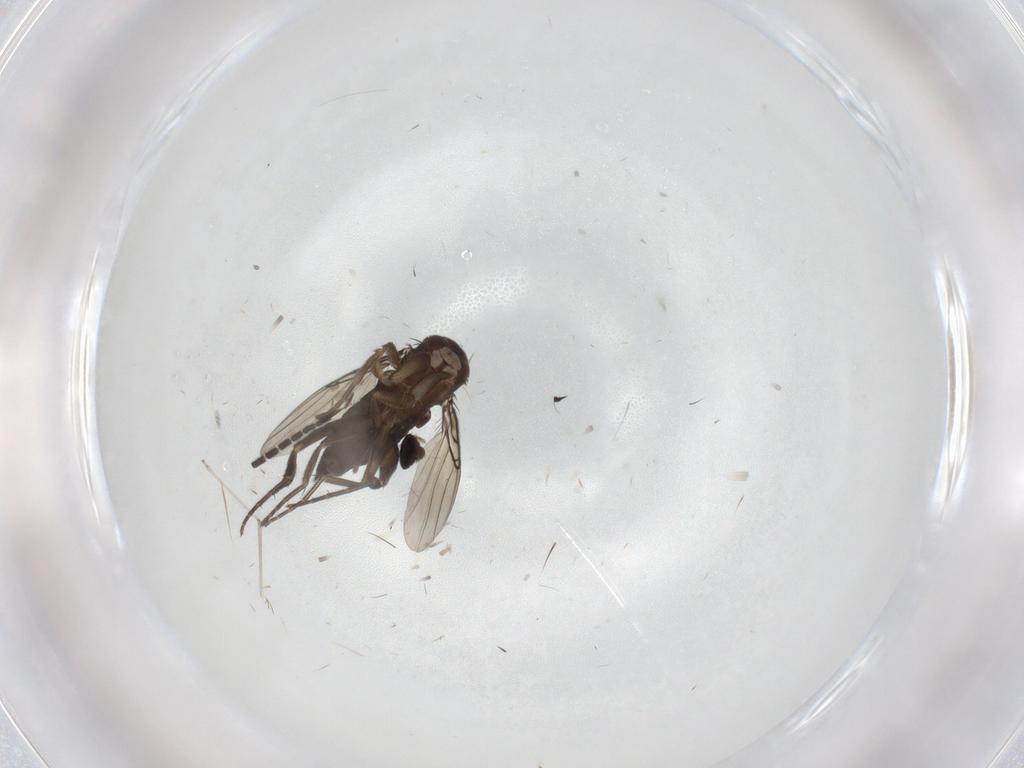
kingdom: Animalia
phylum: Arthropoda
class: Insecta
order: Diptera
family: Phoridae
